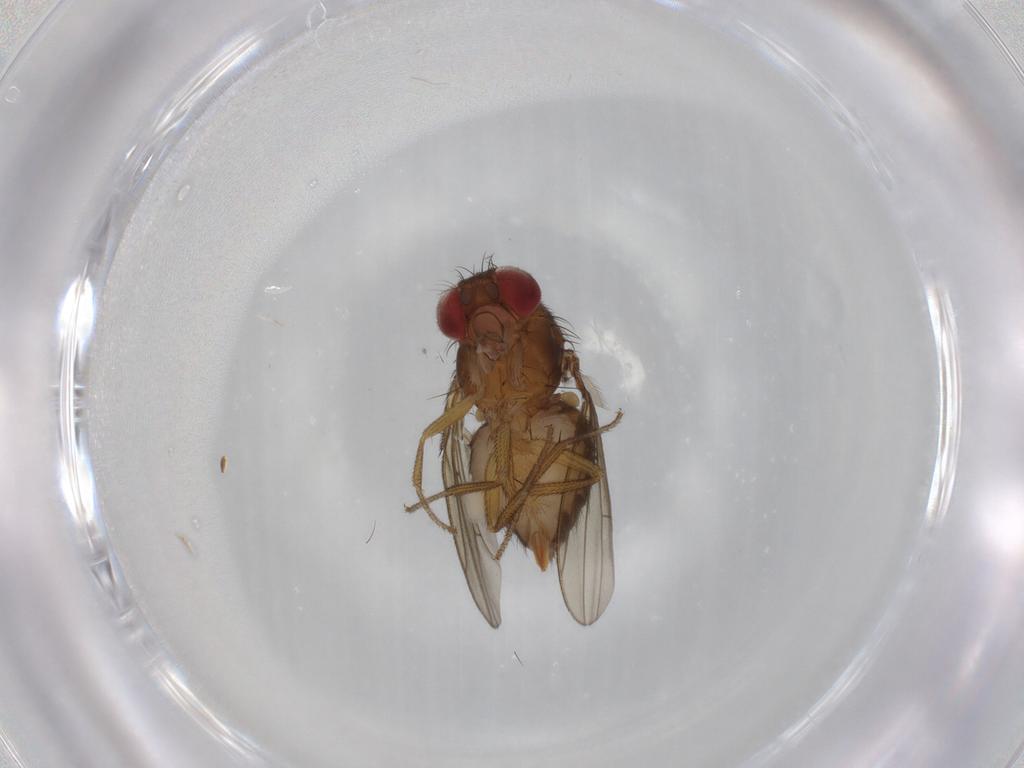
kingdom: Animalia
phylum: Arthropoda
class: Insecta
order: Diptera
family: Drosophilidae
